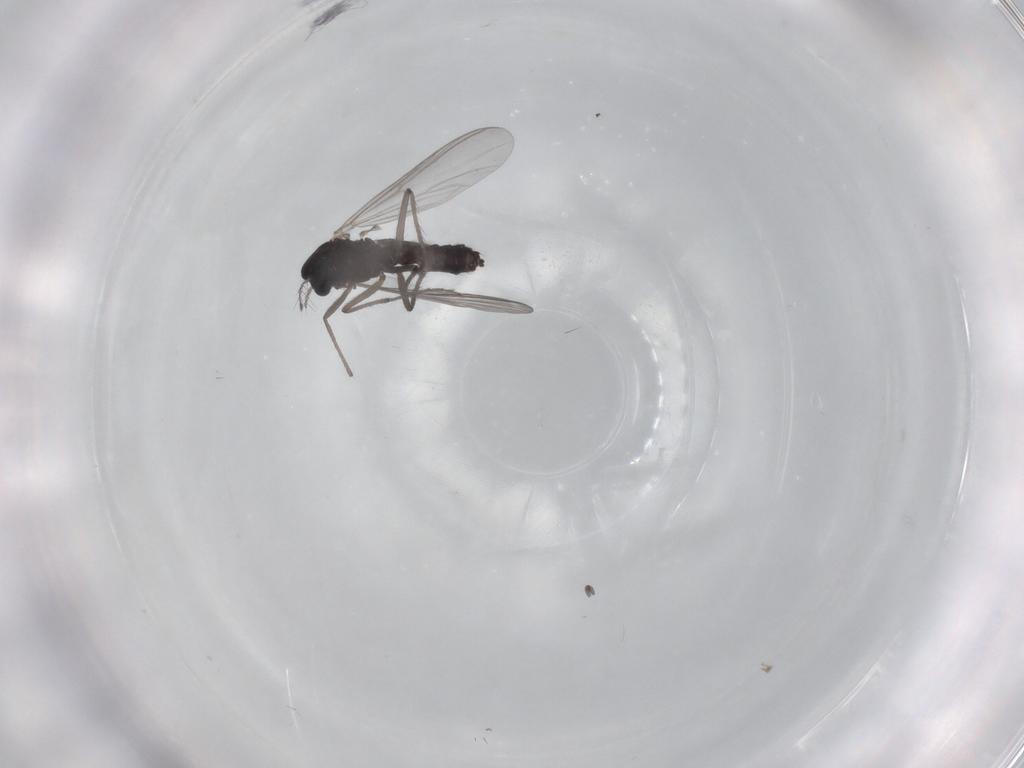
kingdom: Animalia
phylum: Arthropoda
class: Insecta
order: Diptera
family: Chironomidae
